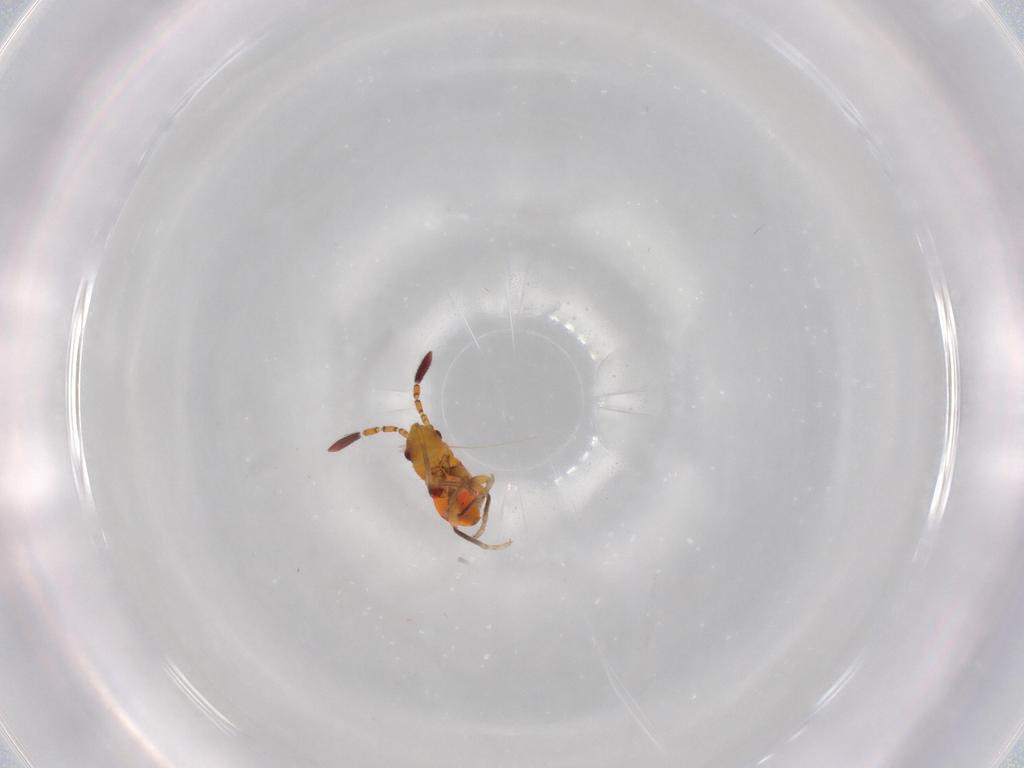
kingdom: Animalia
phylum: Arthropoda
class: Insecta
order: Hemiptera
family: Rhyparochromidae
